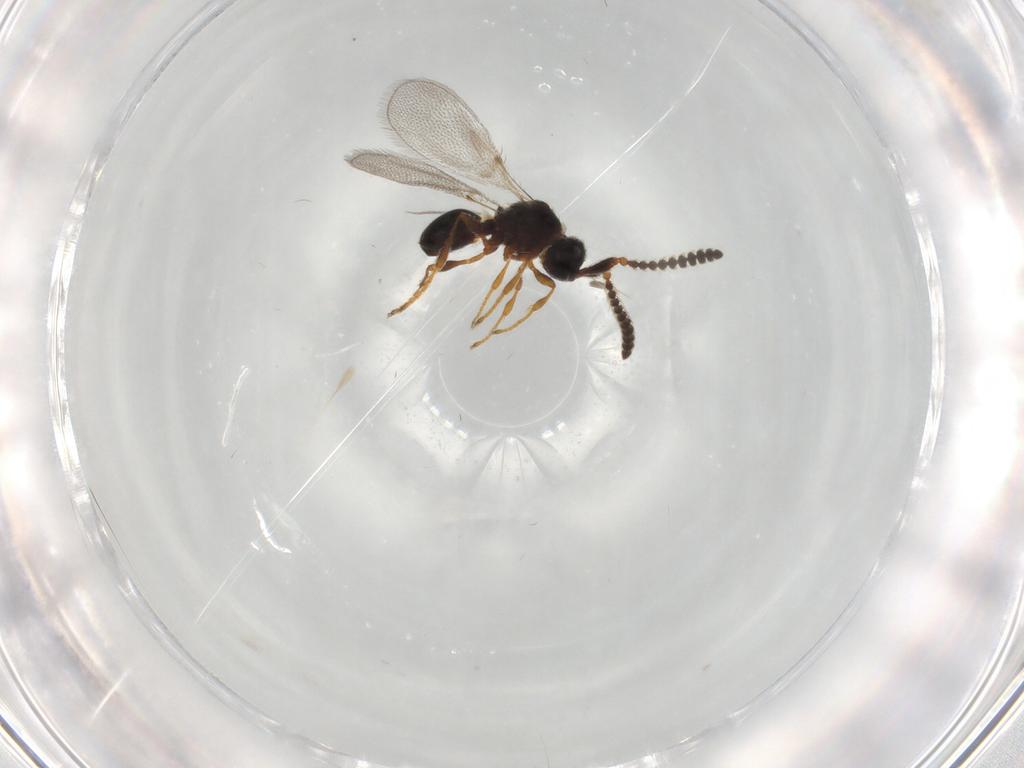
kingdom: Animalia
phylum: Arthropoda
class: Insecta
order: Hymenoptera
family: Diapriidae
